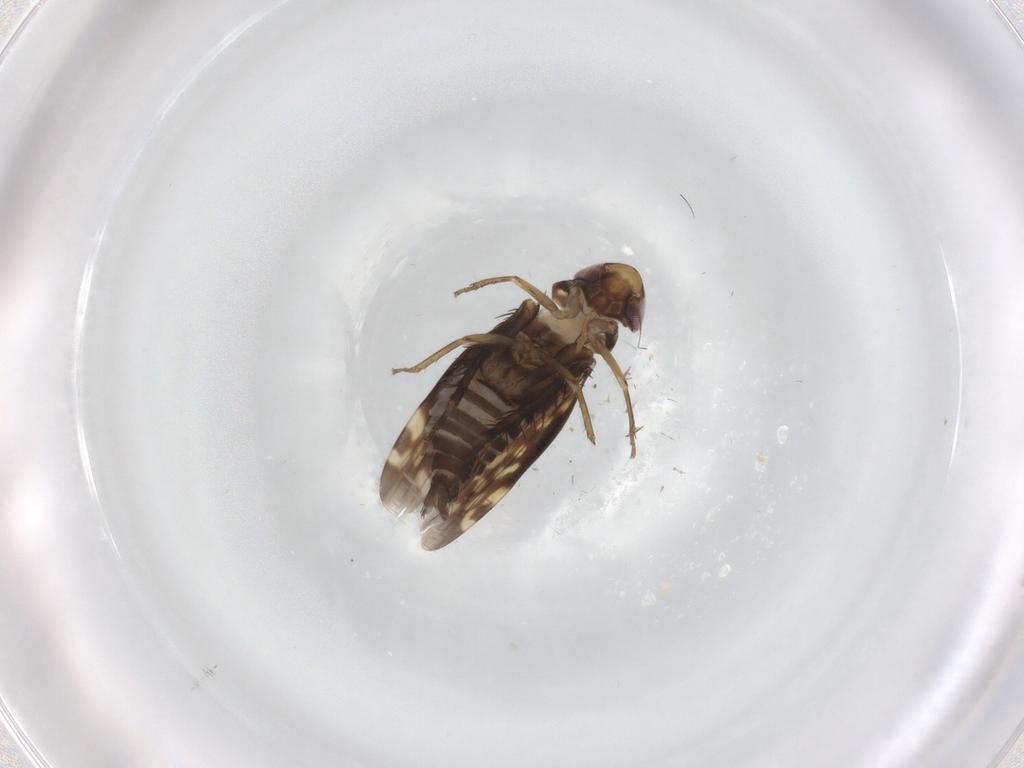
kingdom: Animalia
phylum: Arthropoda
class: Insecta
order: Hemiptera
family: Cicadellidae
